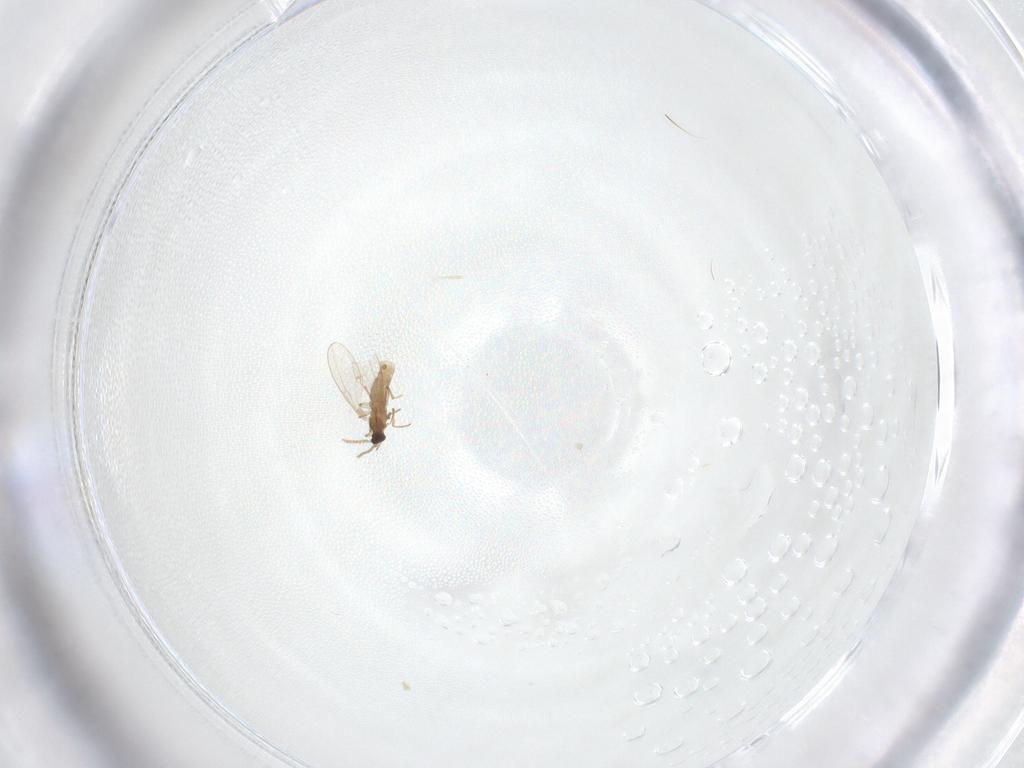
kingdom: Animalia
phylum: Arthropoda
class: Insecta
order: Diptera
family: Cecidomyiidae
